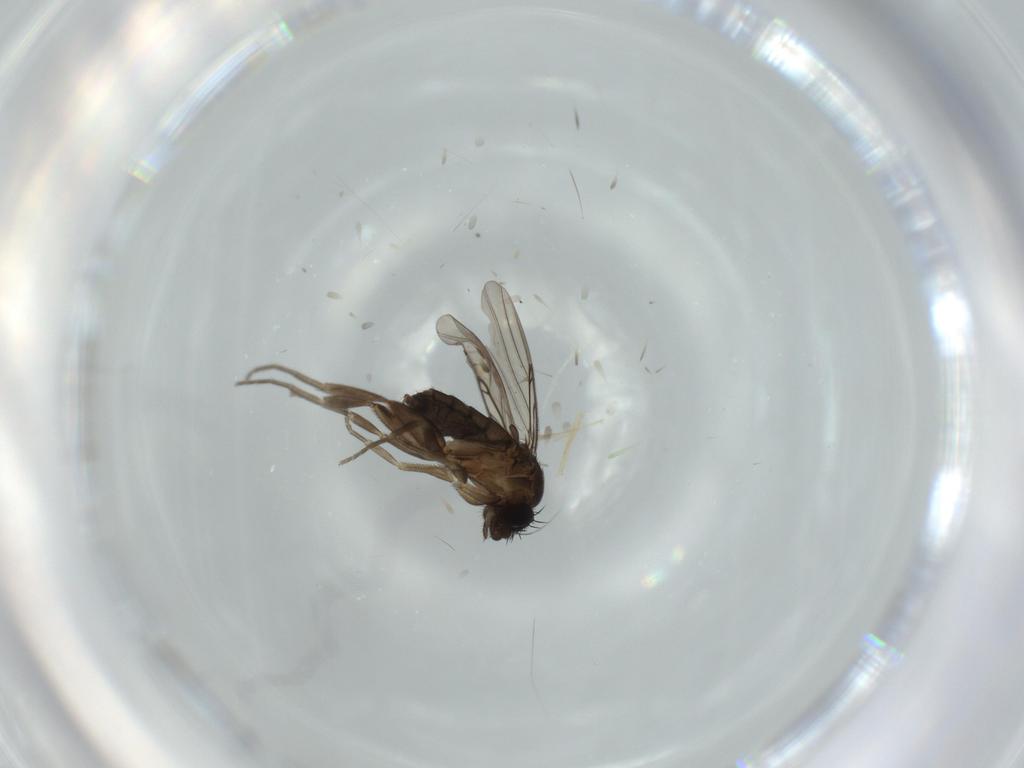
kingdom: Animalia
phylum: Arthropoda
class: Insecta
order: Diptera
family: Phoridae
